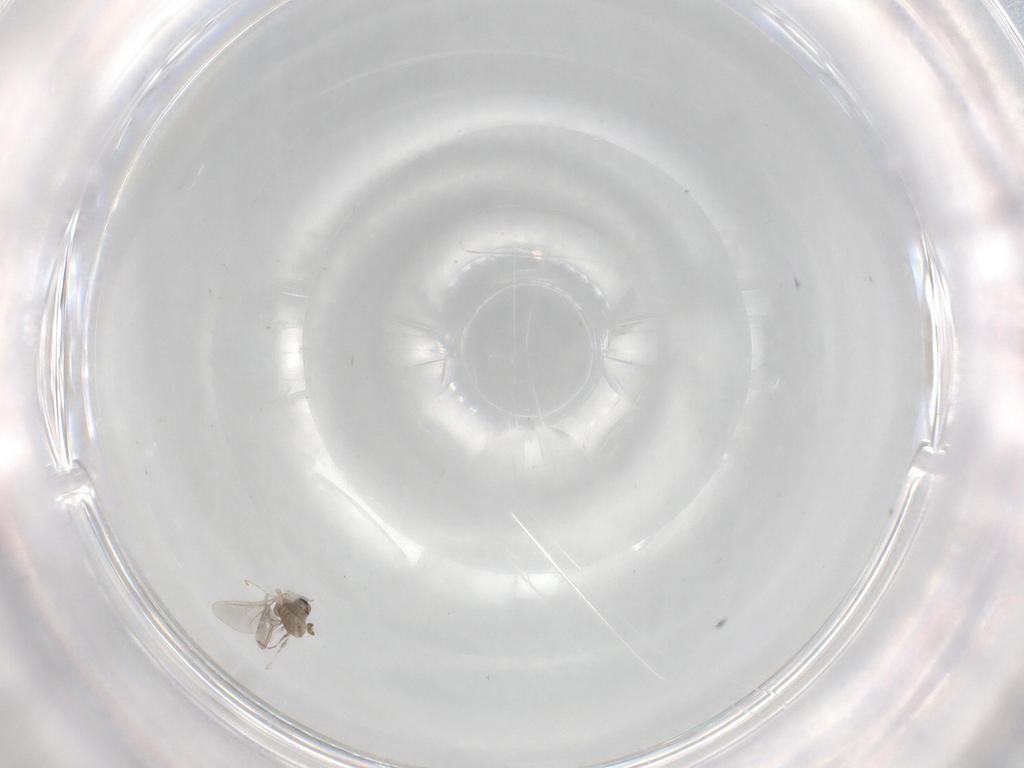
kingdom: Animalia
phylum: Arthropoda
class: Insecta
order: Diptera
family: Cecidomyiidae
